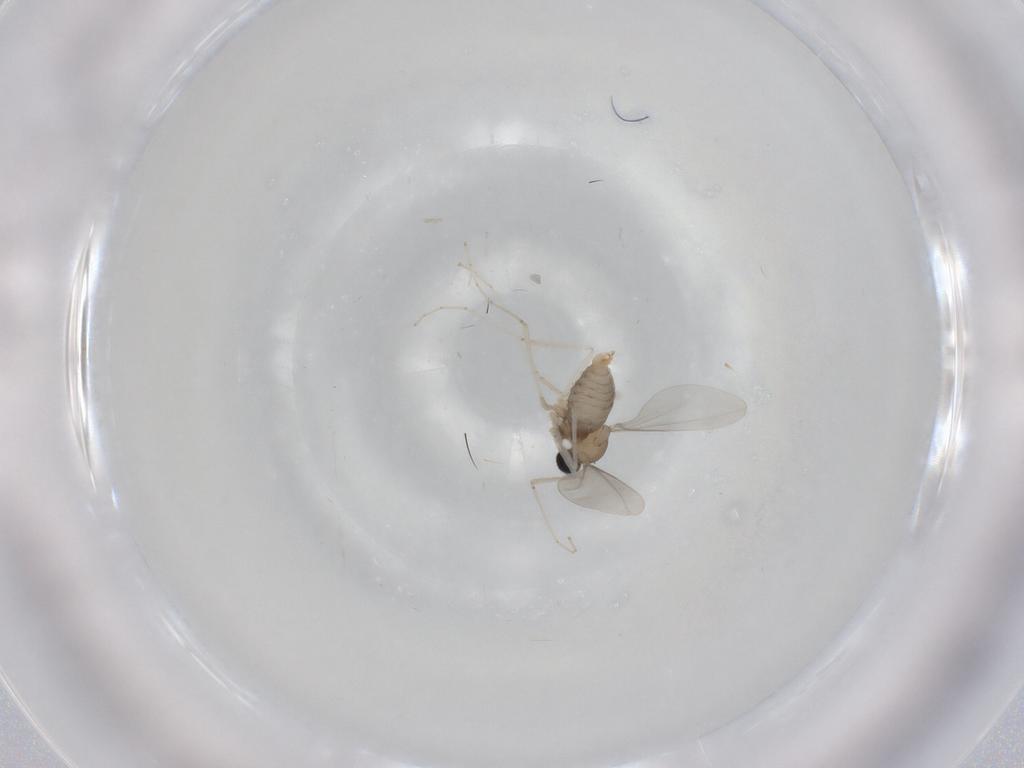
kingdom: Animalia
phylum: Arthropoda
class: Insecta
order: Diptera
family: Cecidomyiidae
